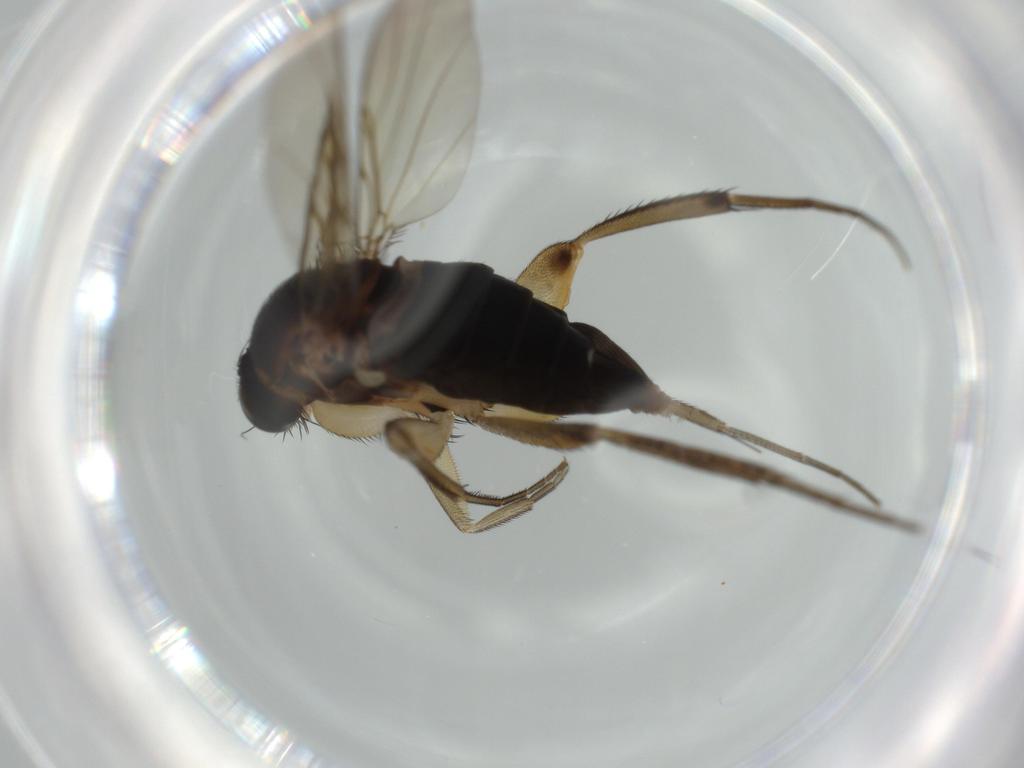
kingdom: Animalia
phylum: Arthropoda
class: Insecta
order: Diptera
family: Phoridae
